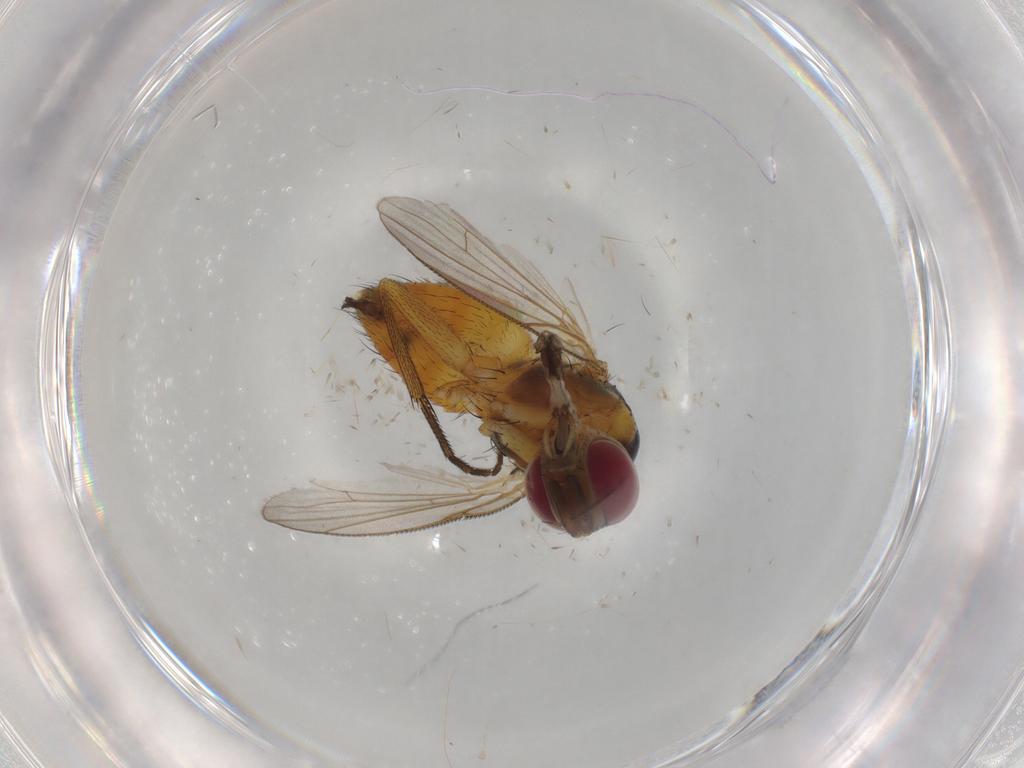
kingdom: Animalia
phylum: Arthropoda
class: Insecta
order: Diptera
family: Muscidae
